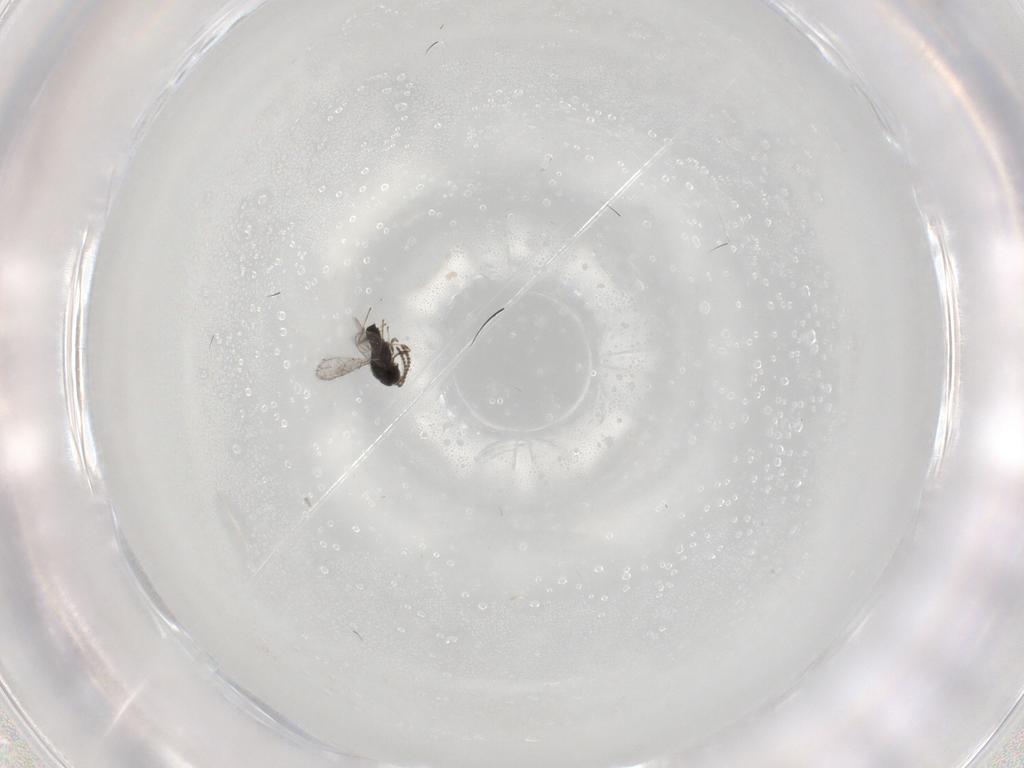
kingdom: Animalia
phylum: Arthropoda
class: Insecta
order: Hymenoptera
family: Scelionidae
